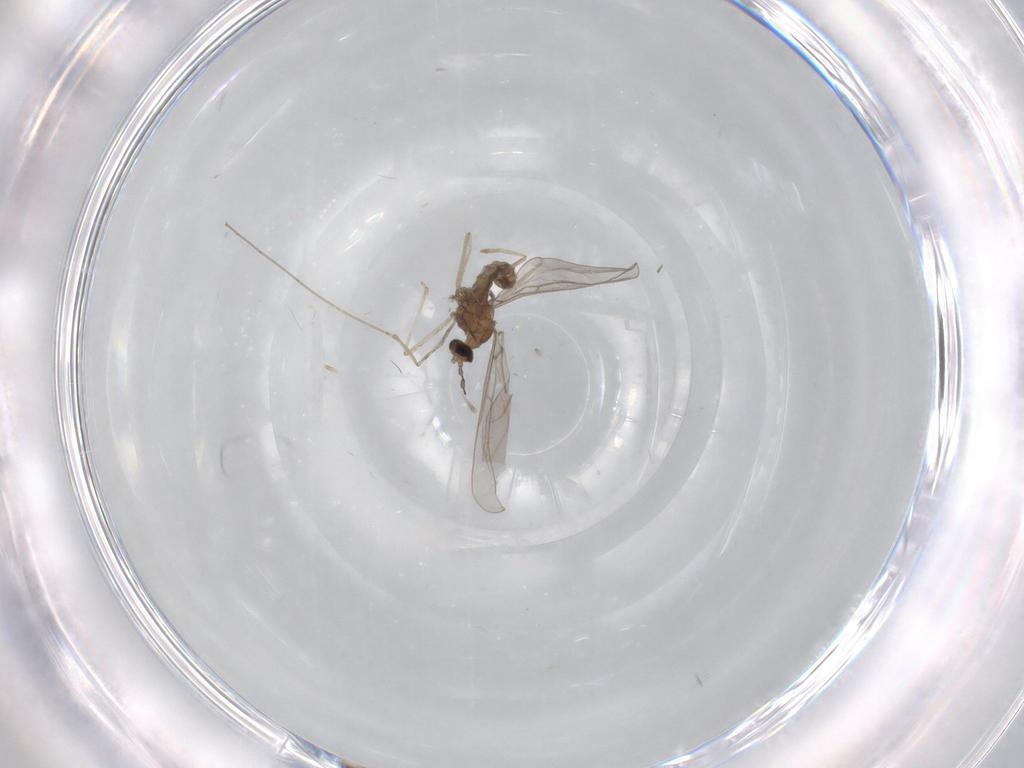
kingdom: Animalia
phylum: Arthropoda
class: Insecta
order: Diptera
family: Cecidomyiidae
